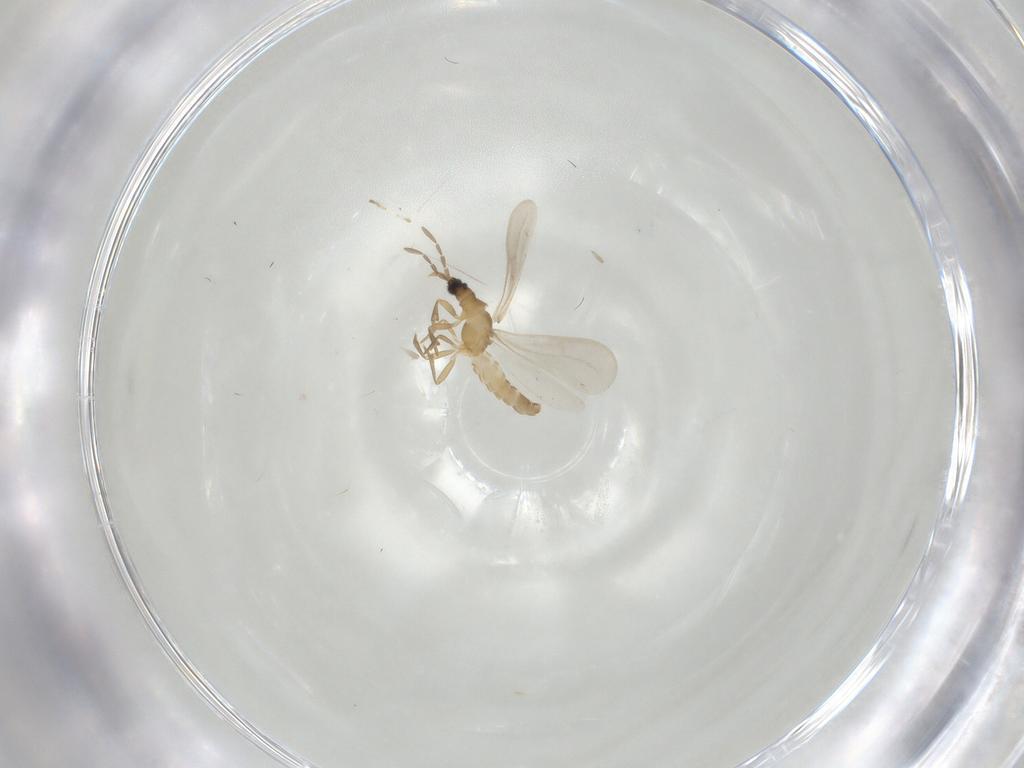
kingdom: Animalia
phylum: Arthropoda
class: Insecta
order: Hemiptera
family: Enicocephalidae
